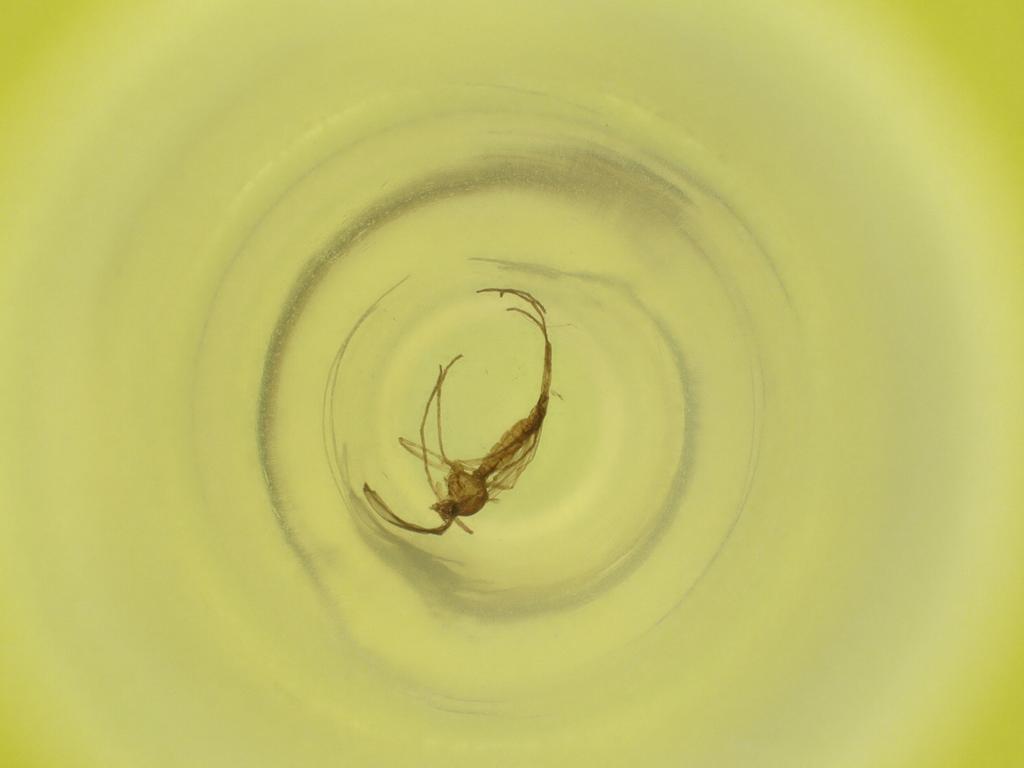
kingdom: Animalia
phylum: Arthropoda
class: Insecta
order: Diptera
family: Cecidomyiidae
